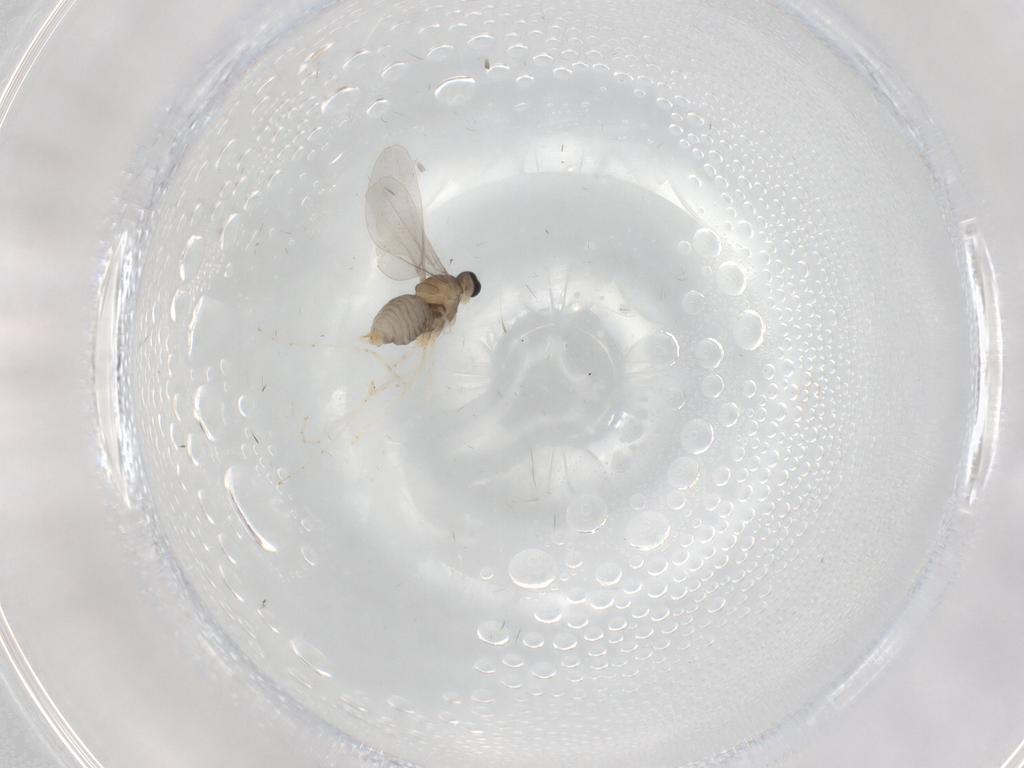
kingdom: Animalia
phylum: Arthropoda
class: Insecta
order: Diptera
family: Cecidomyiidae
